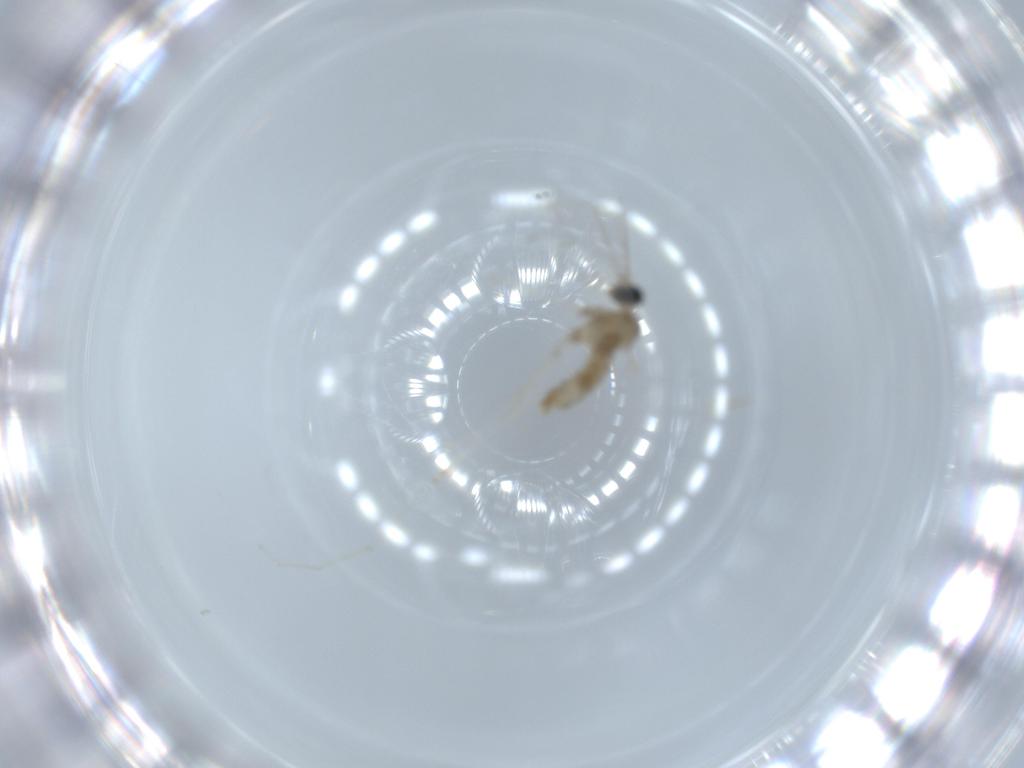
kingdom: Animalia
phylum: Arthropoda
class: Insecta
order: Diptera
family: Cecidomyiidae
